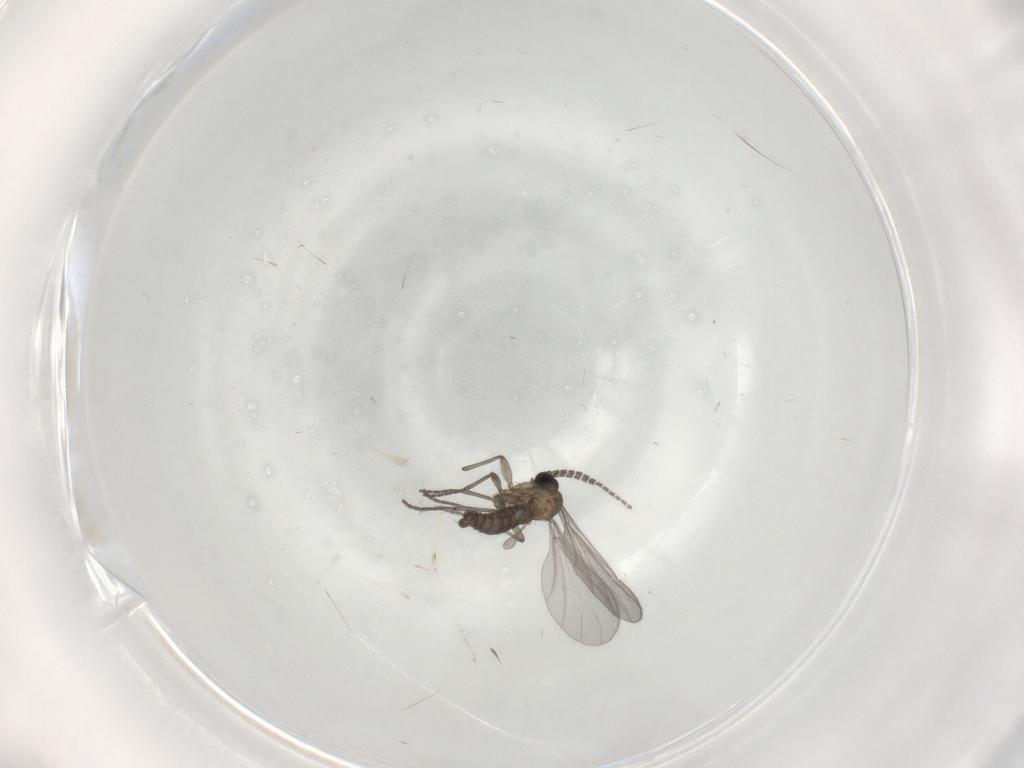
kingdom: Animalia
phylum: Arthropoda
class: Insecta
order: Diptera
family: Sciaridae
